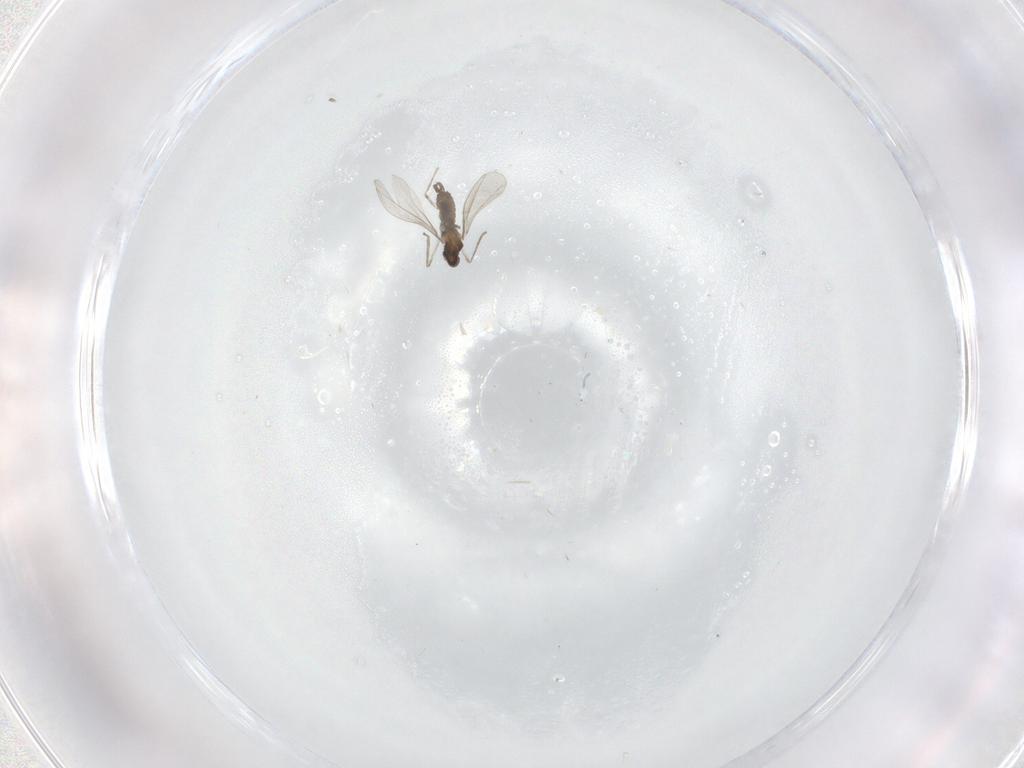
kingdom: Animalia
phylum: Arthropoda
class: Insecta
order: Diptera
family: Cecidomyiidae
